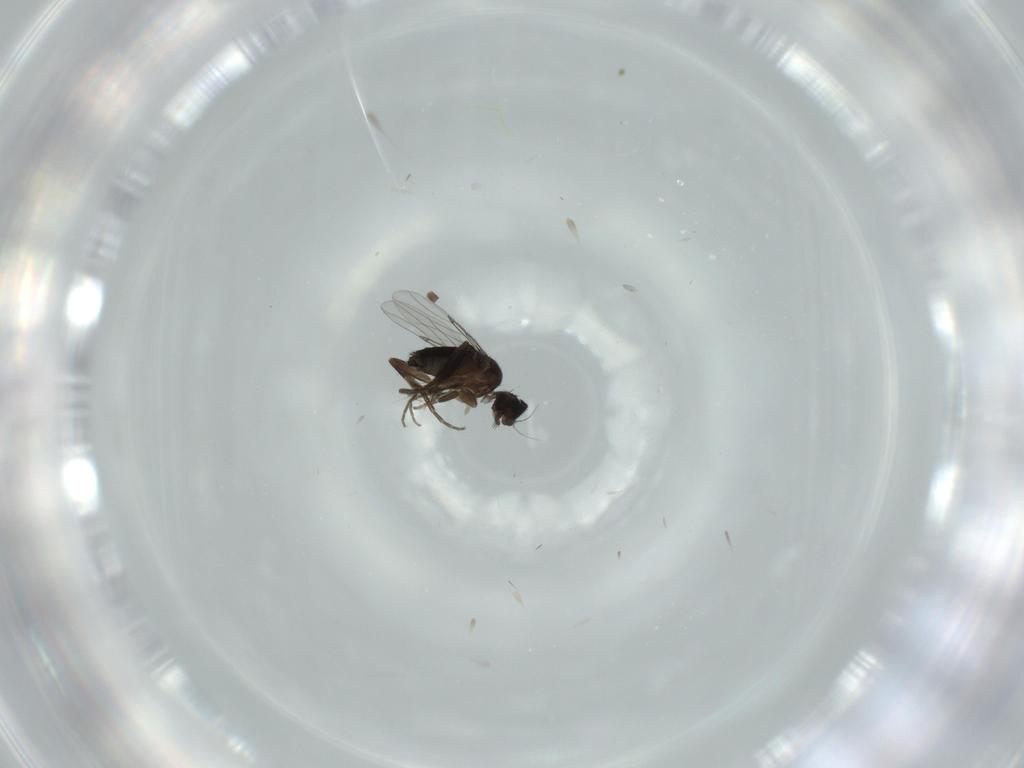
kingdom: Animalia
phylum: Arthropoda
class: Insecta
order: Diptera
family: Phoridae
